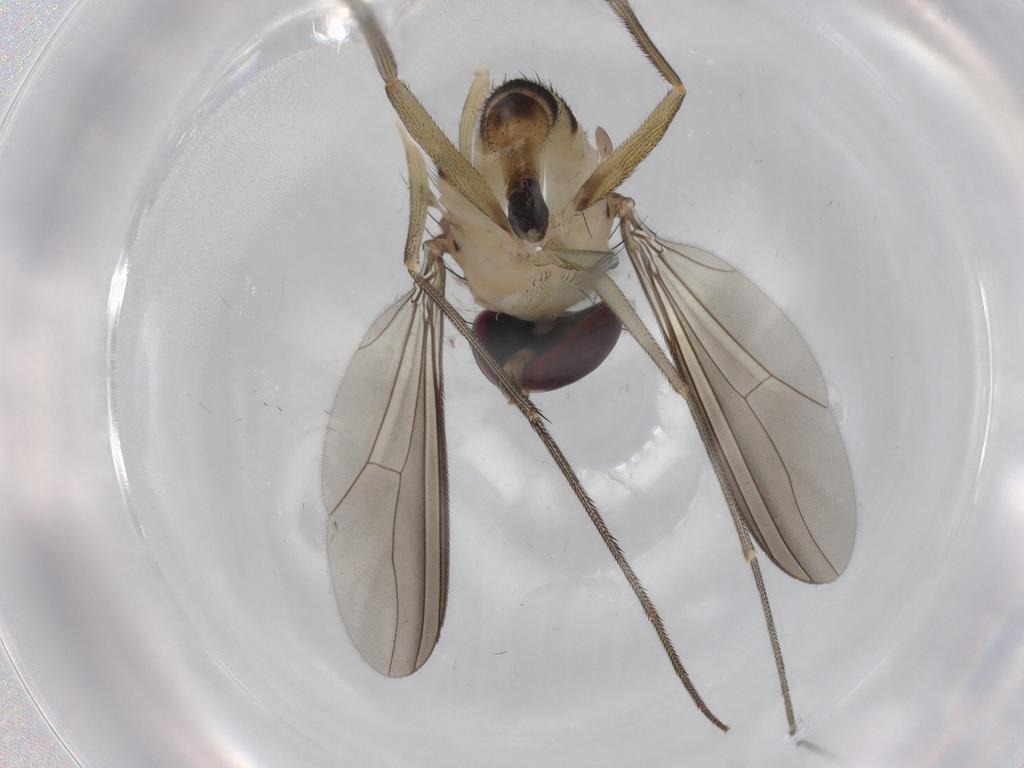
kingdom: Animalia
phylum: Arthropoda
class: Insecta
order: Diptera
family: Dolichopodidae
